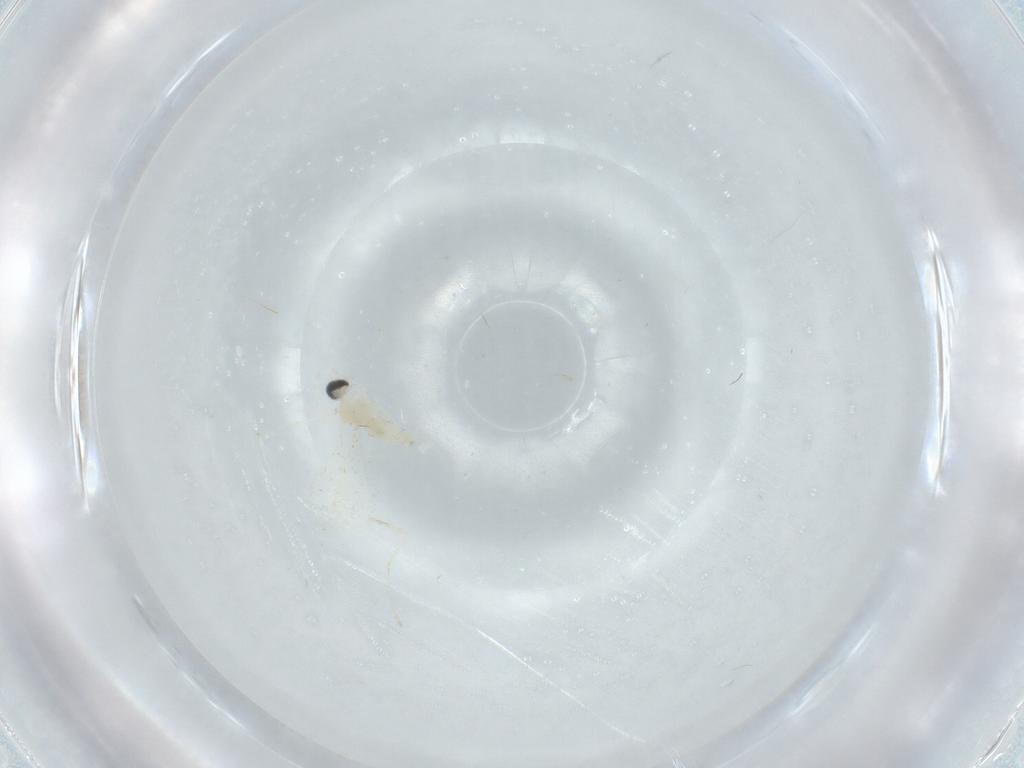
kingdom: Animalia
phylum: Arthropoda
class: Insecta
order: Diptera
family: Cecidomyiidae
